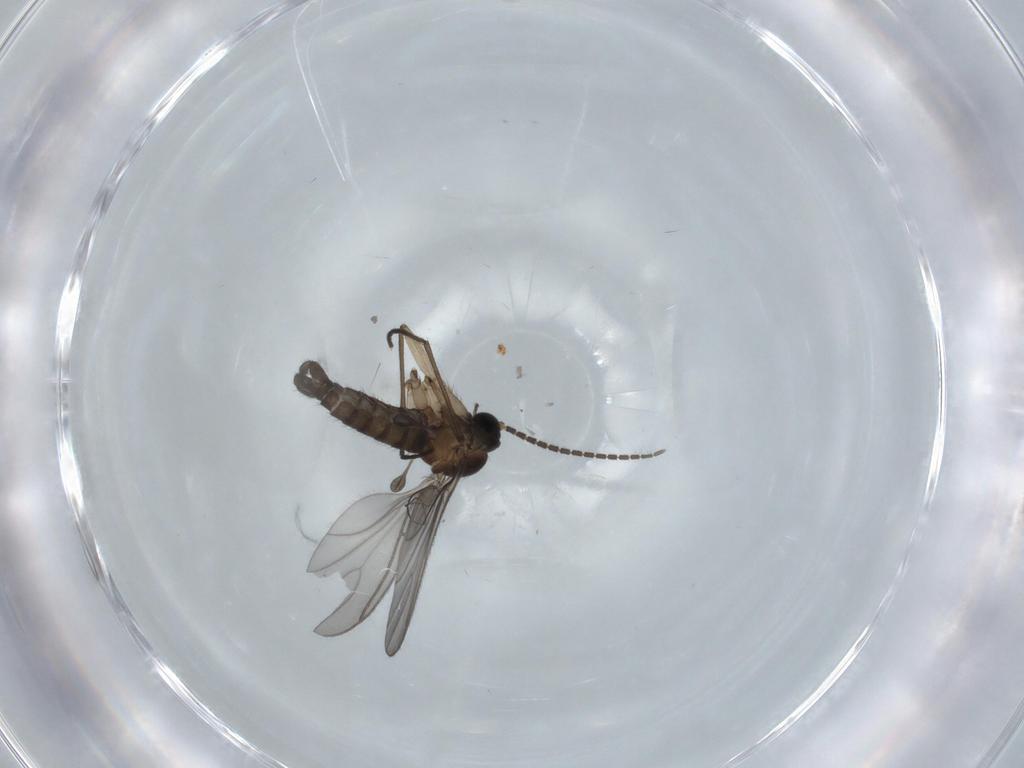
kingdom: Animalia
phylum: Arthropoda
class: Insecta
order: Diptera
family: Sciaridae
